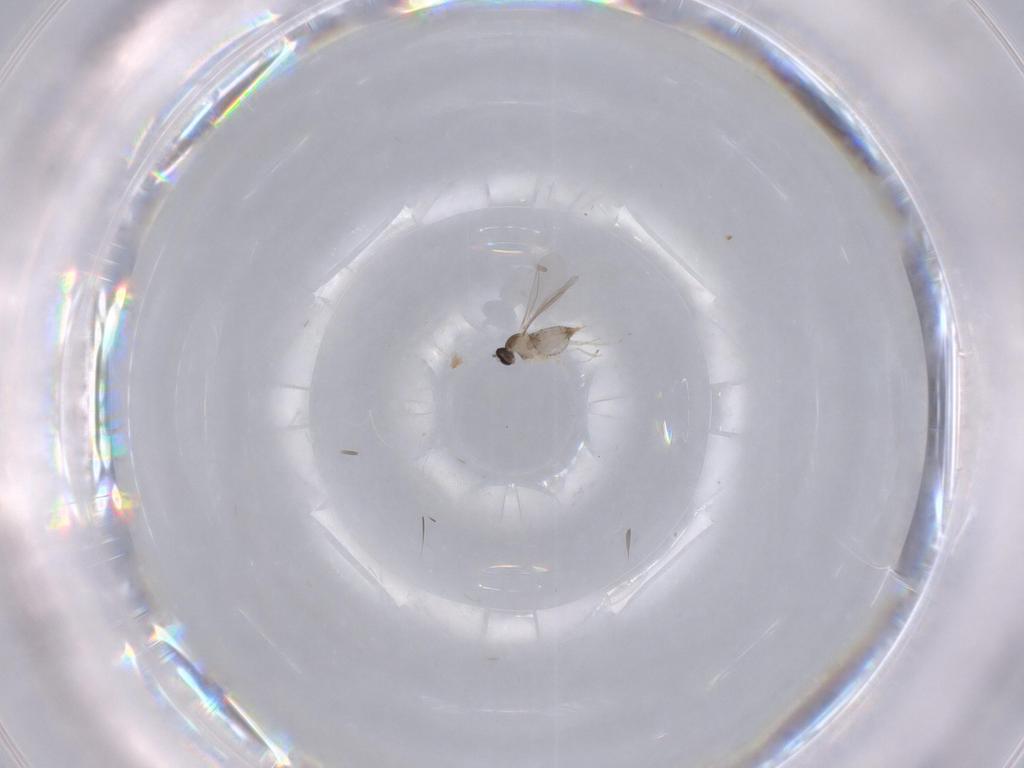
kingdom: Animalia
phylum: Arthropoda
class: Insecta
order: Diptera
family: Cecidomyiidae
